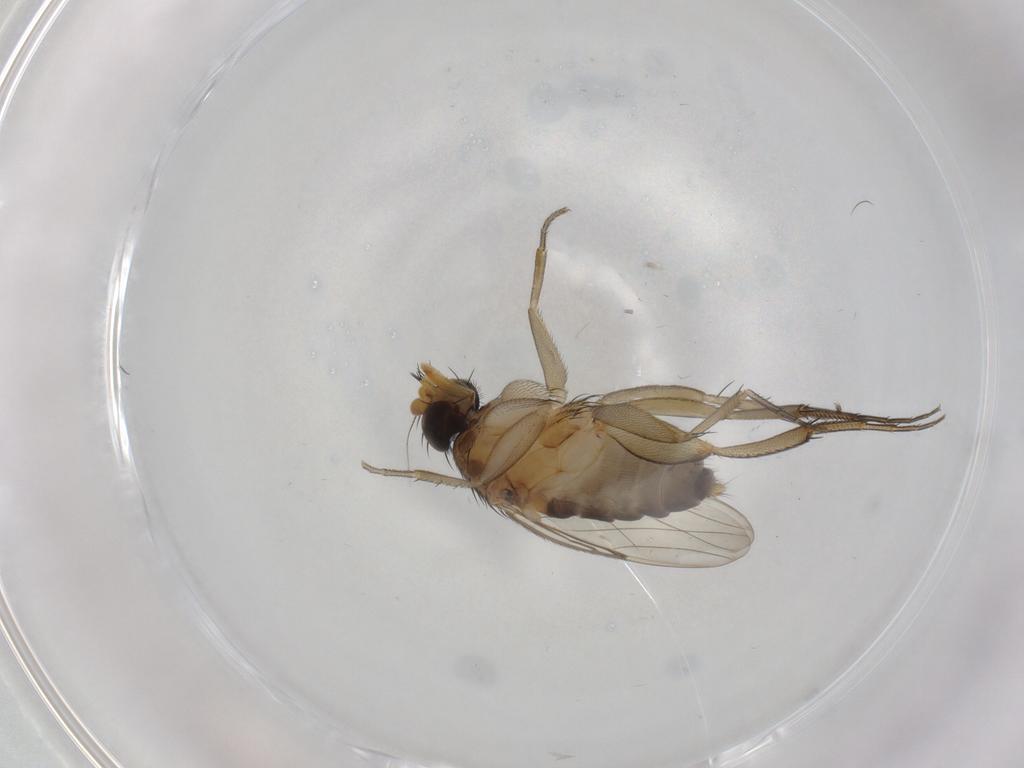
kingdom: Animalia
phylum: Arthropoda
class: Insecta
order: Diptera
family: Phoridae
